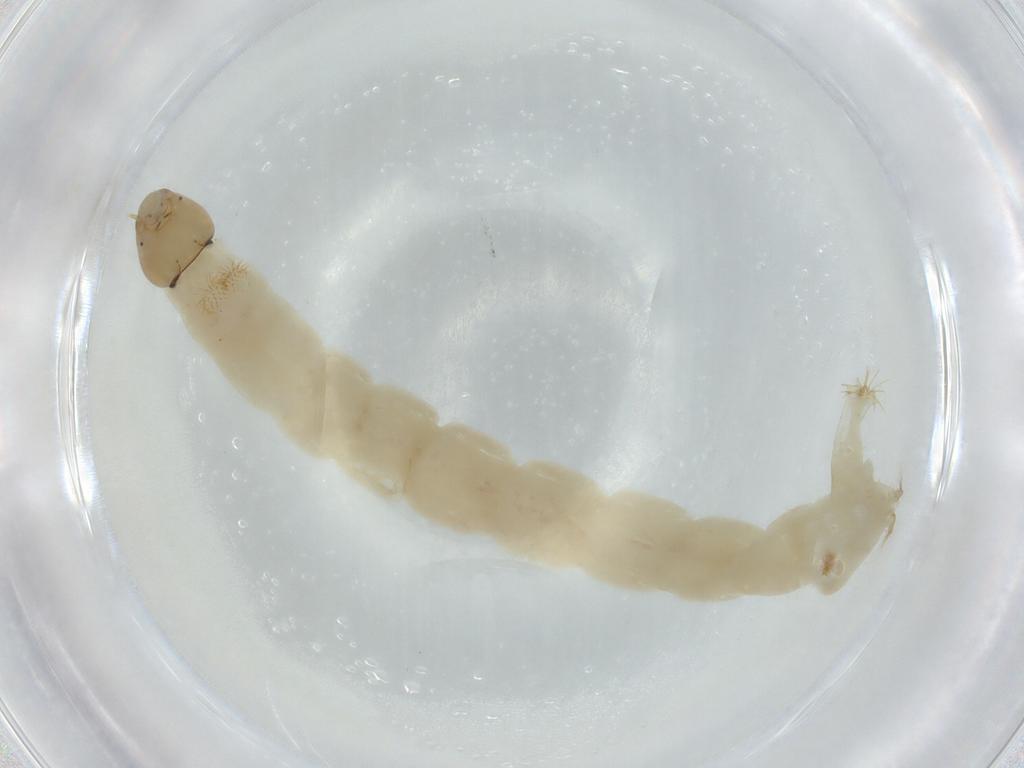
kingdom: Animalia
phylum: Arthropoda
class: Insecta
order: Diptera
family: Chironomidae
